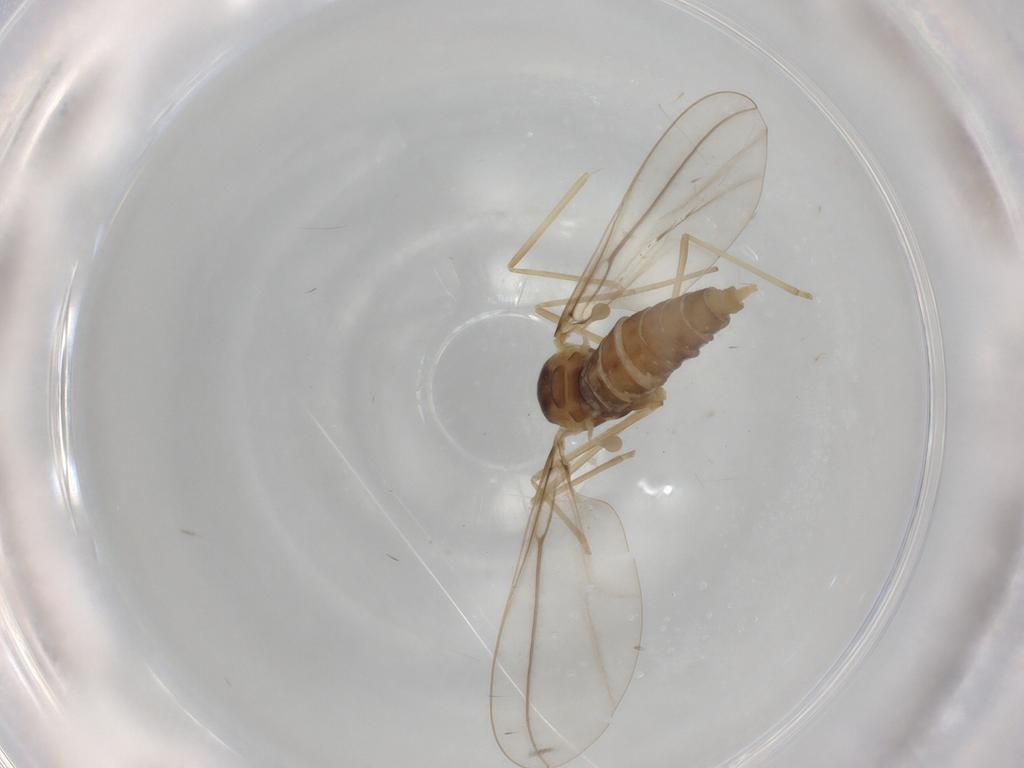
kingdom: Animalia
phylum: Arthropoda
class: Insecta
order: Diptera
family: Cecidomyiidae
